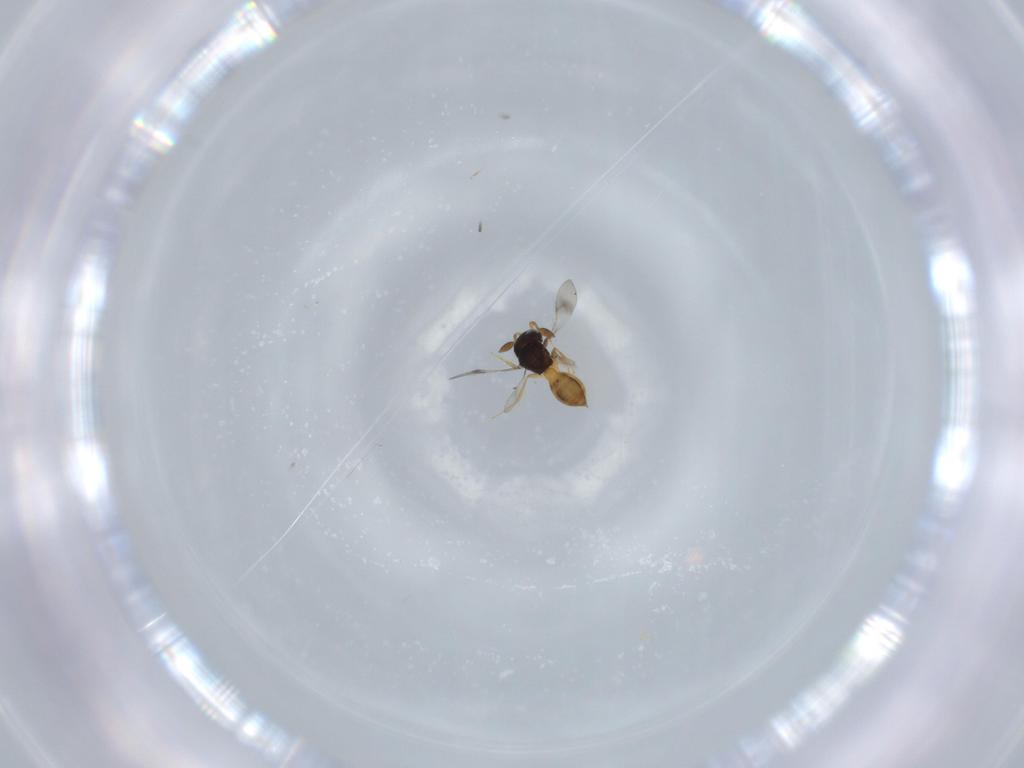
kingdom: Animalia
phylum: Arthropoda
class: Insecta
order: Hymenoptera
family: Scelionidae
